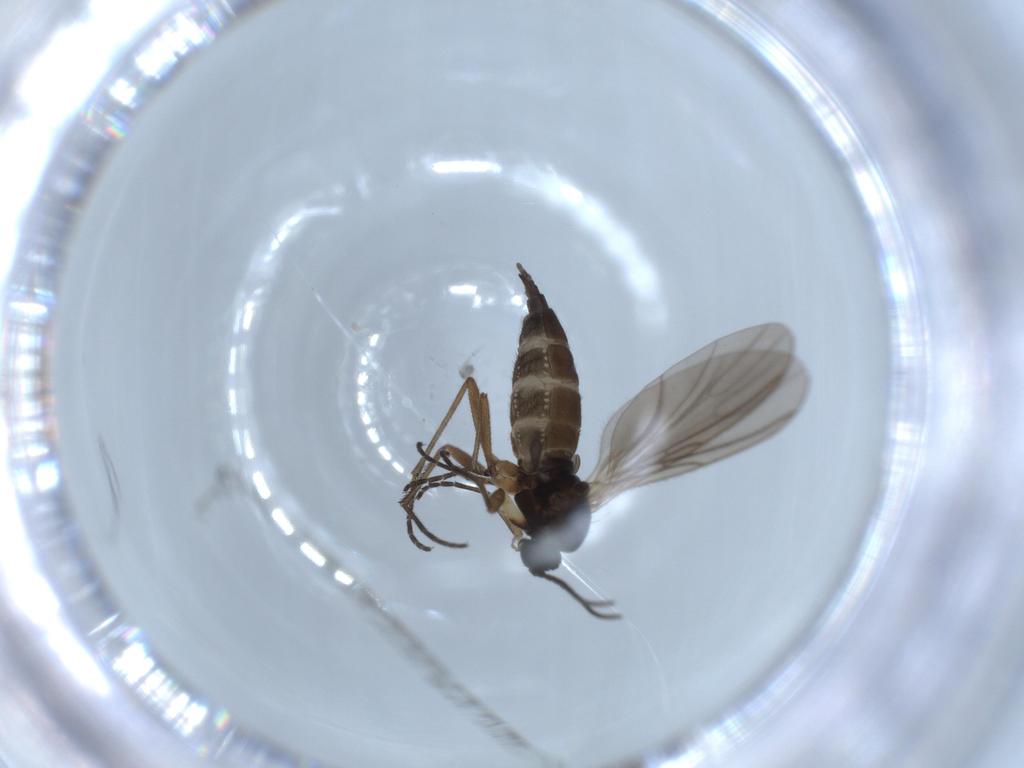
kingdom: Animalia
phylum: Arthropoda
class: Insecta
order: Diptera
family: Sciaridae
